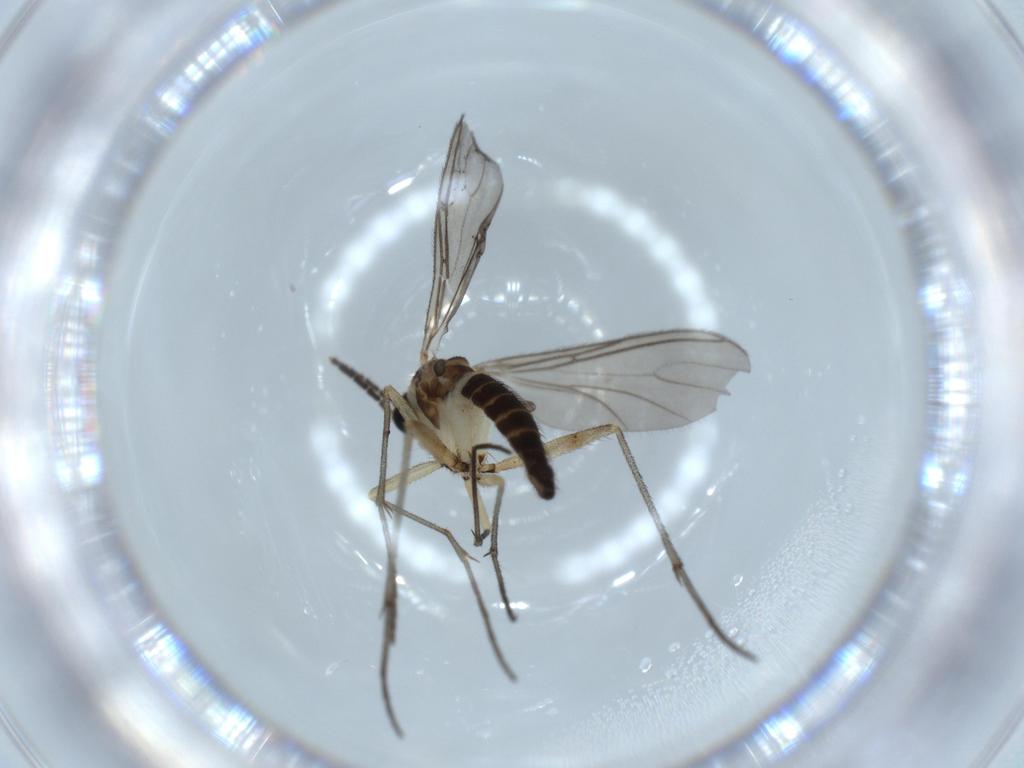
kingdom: Animalia
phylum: Arthropoda
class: Insecta
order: Diptera
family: Sciaridae
